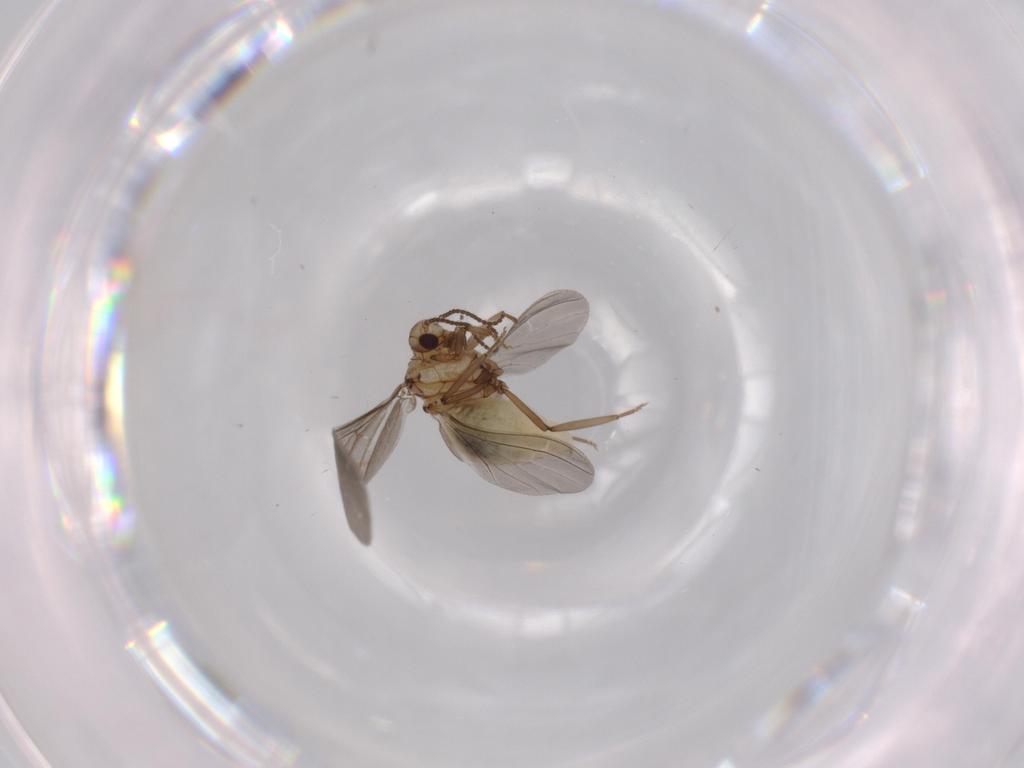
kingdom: Animalia
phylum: Arthropoda
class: Insecta
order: Neuroptera
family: Coniopterygidae
